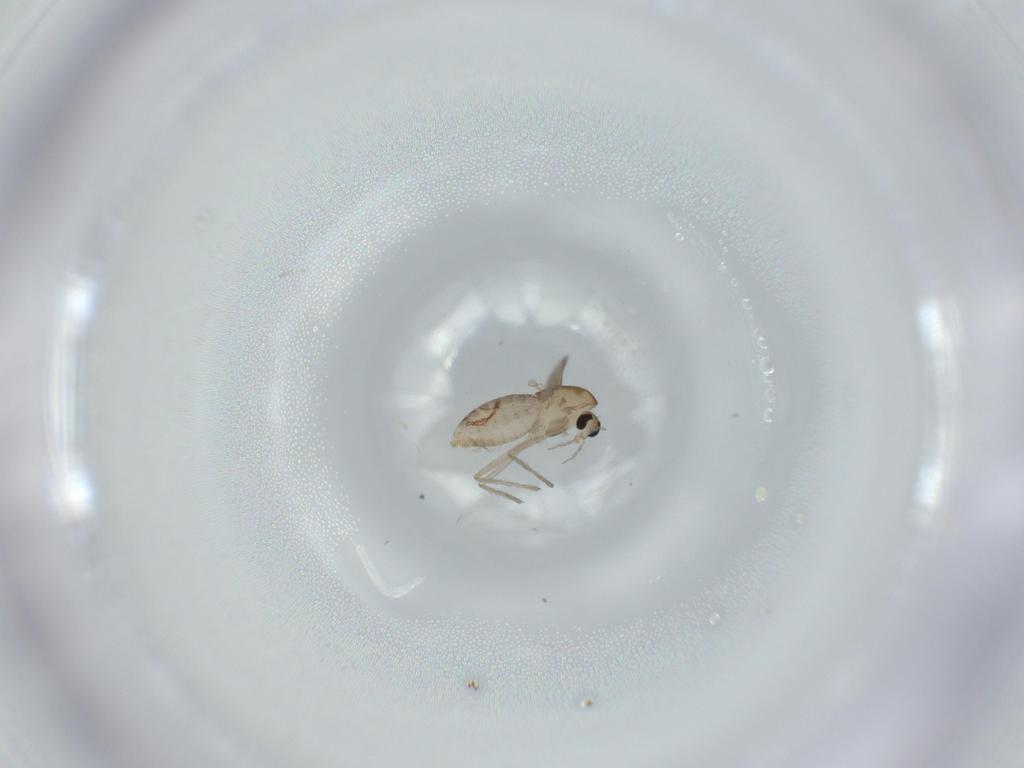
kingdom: Animalia
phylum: Arthropoda
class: Insecta
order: Diptera
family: Chironomidae
